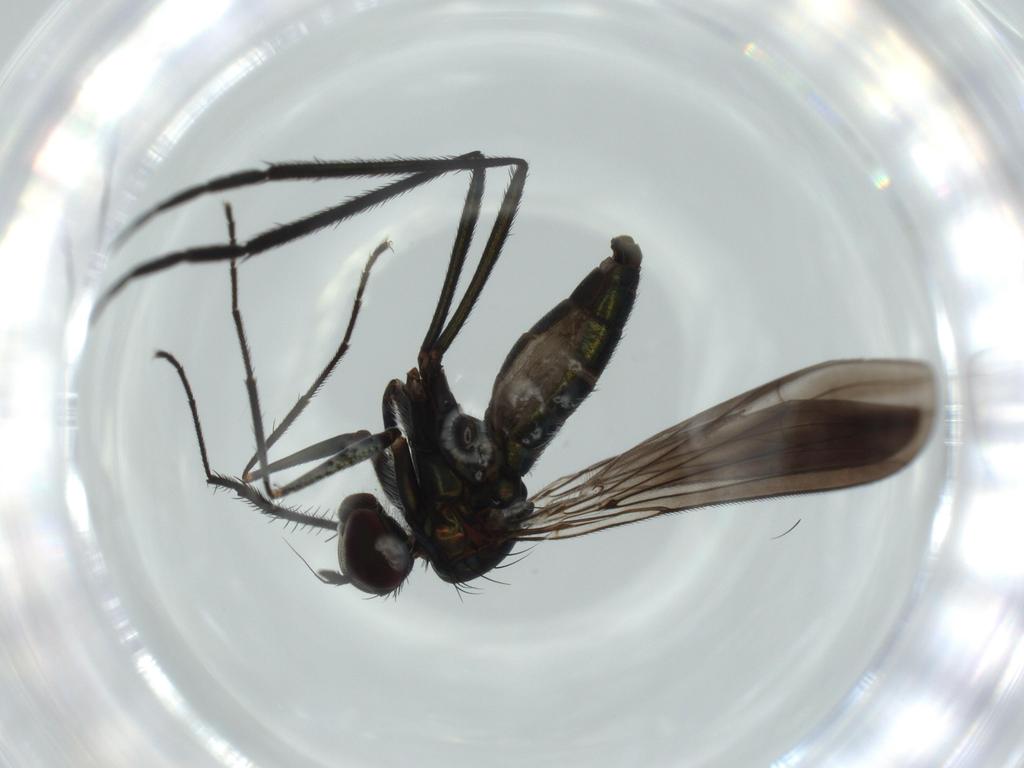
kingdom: Animalia
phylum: Arthropoda
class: Insecta
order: Diptera
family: Chironomidae
